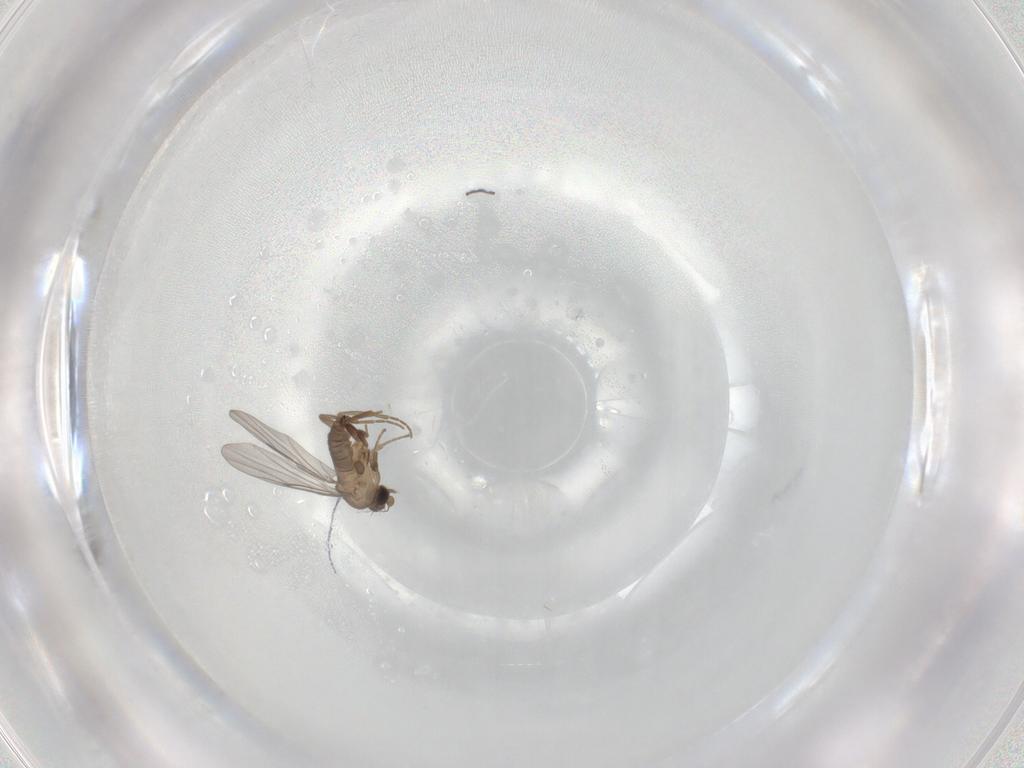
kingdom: Animalia
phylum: Arthropoda
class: Insecta
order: Diptera
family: Chironomidae
